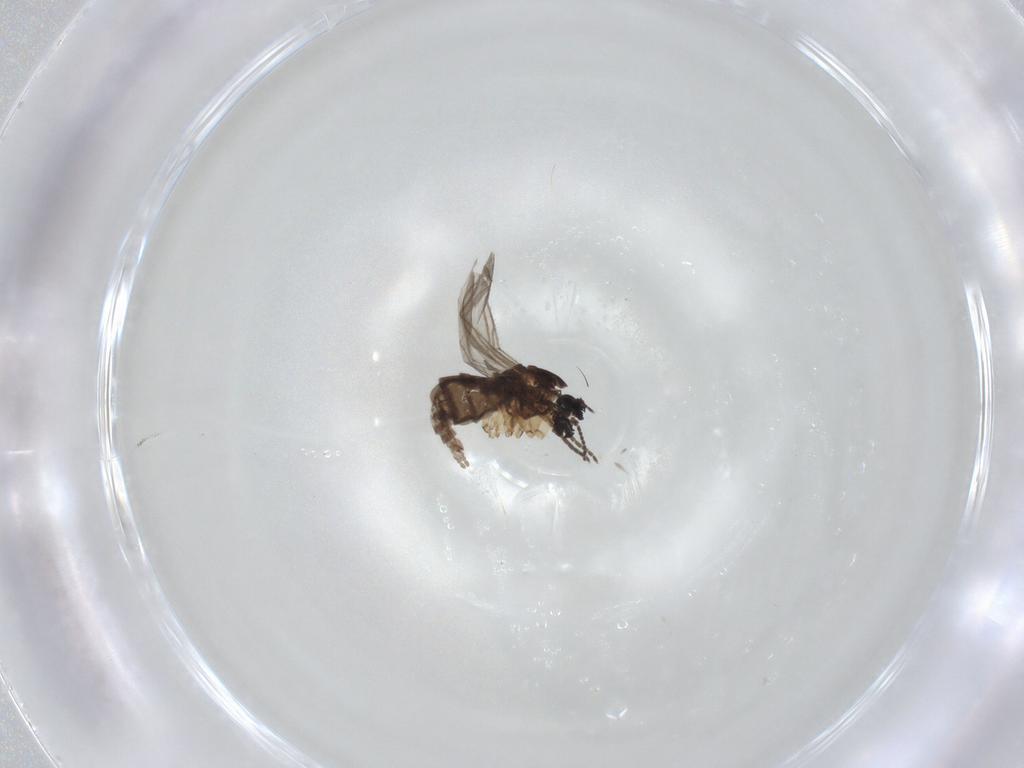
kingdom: Animalia
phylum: Arthropoda
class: Insecta
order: Diptera
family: Sciaridae
